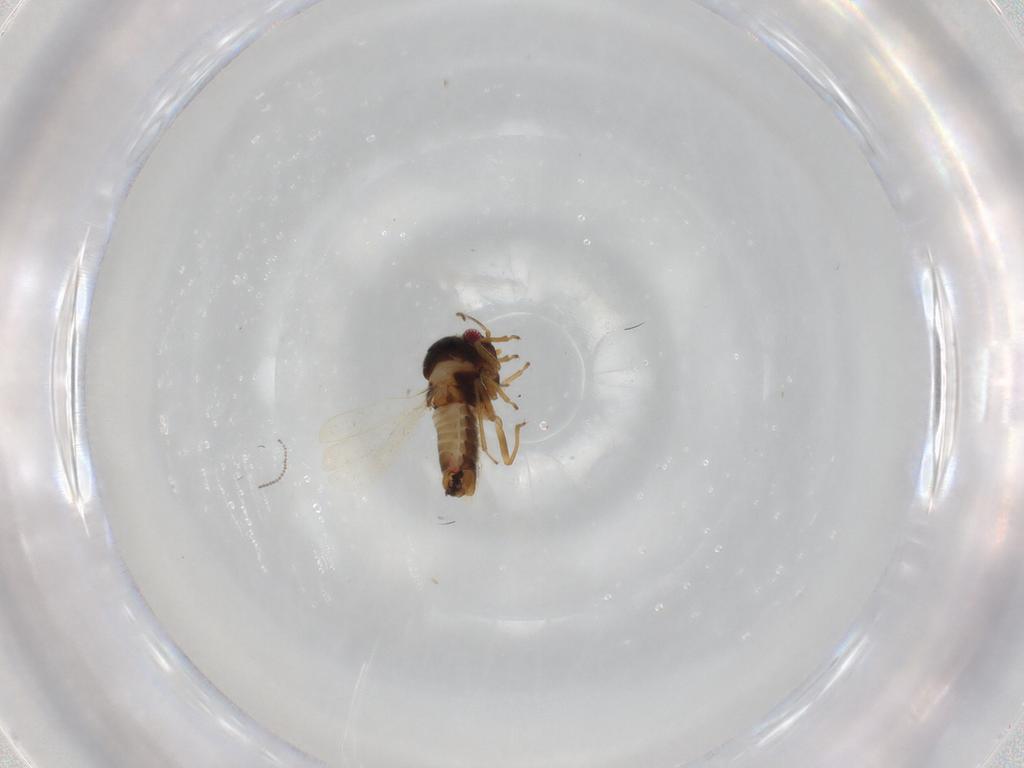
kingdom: Animalia
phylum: Arthropoda
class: Insecta
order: Hemiptera
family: Schizopteridae
